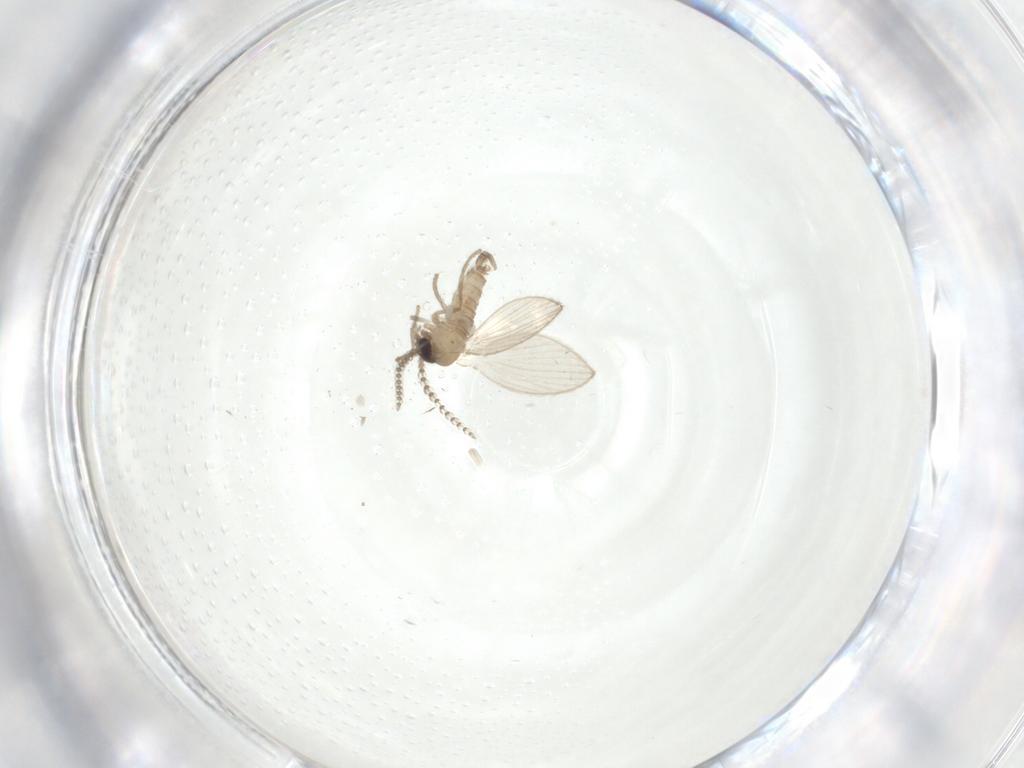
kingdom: Animalia
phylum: Arthropoda
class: Insecta
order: Diptera
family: Psychodidae
